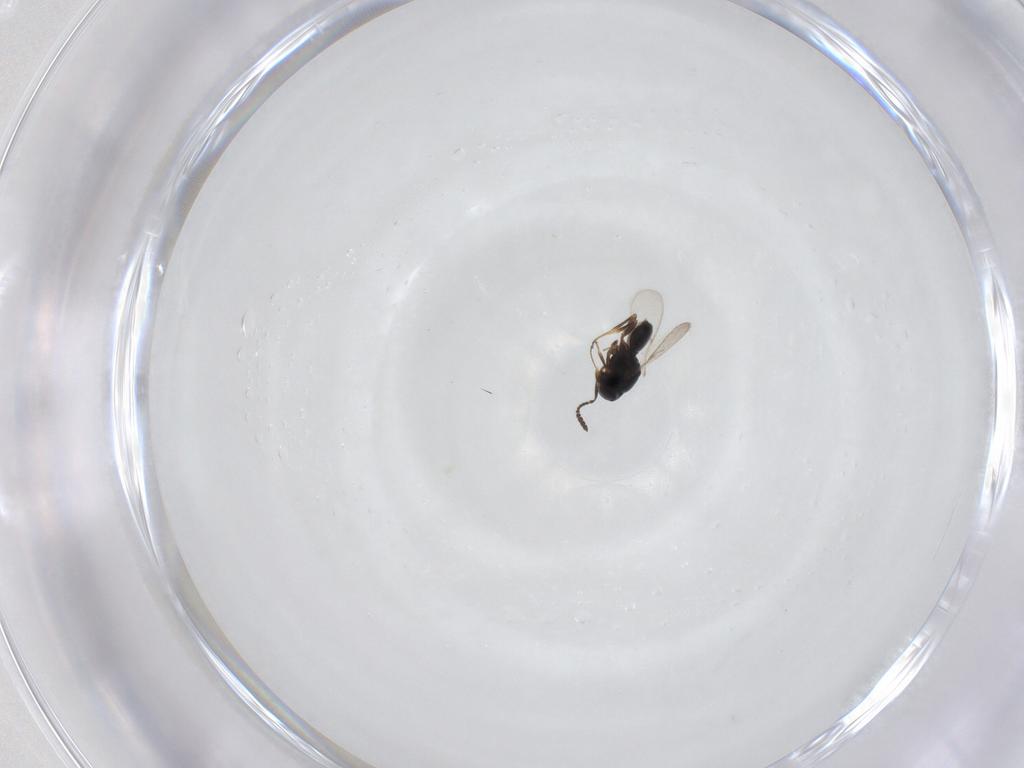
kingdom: Animalia
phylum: Arthropoda
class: Insecta
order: Hymenoptera
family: Scelionidae
